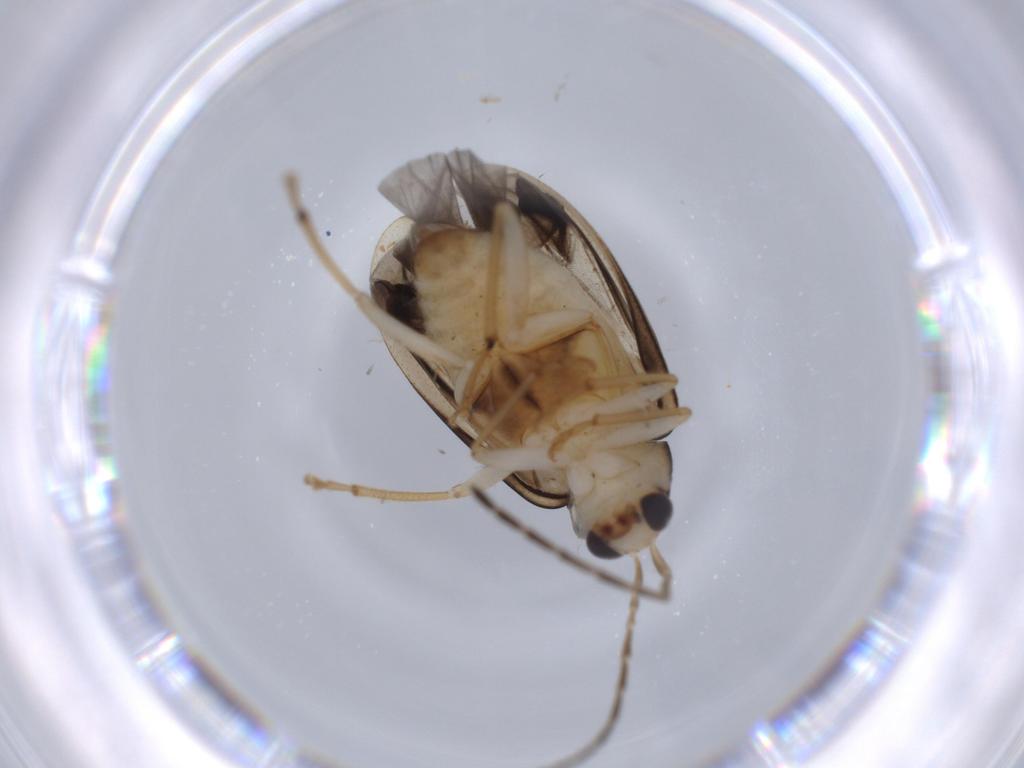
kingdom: Animalia
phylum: Arthropoda
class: Insecta
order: Coleoptera
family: Chrysomelidae
